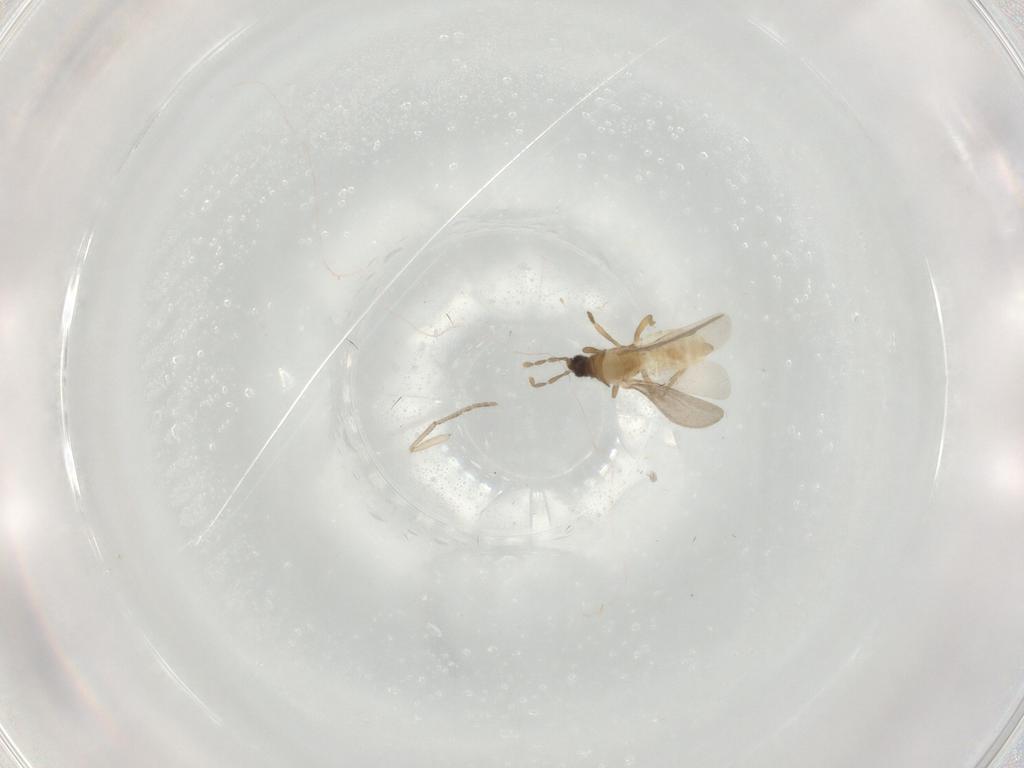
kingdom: Animalia
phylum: Arthropoda
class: Insecta
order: Diptera
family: Limoniidae
